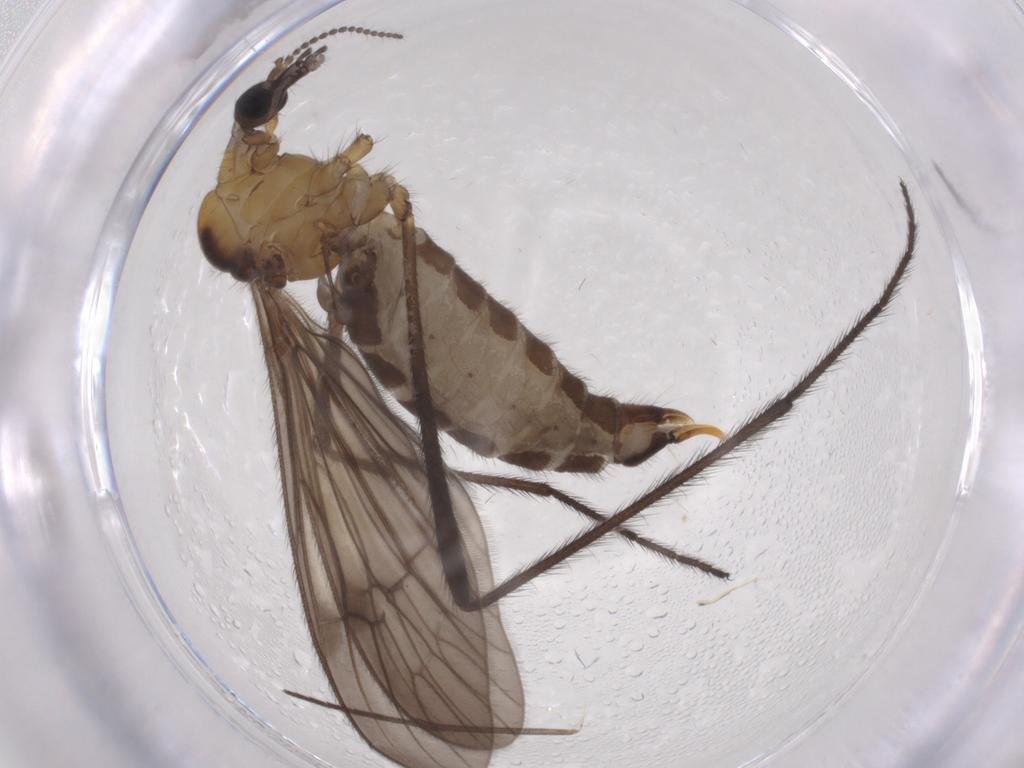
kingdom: Animalia
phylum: Arthropoda
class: Insecta
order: Diptera
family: Limoniidae
